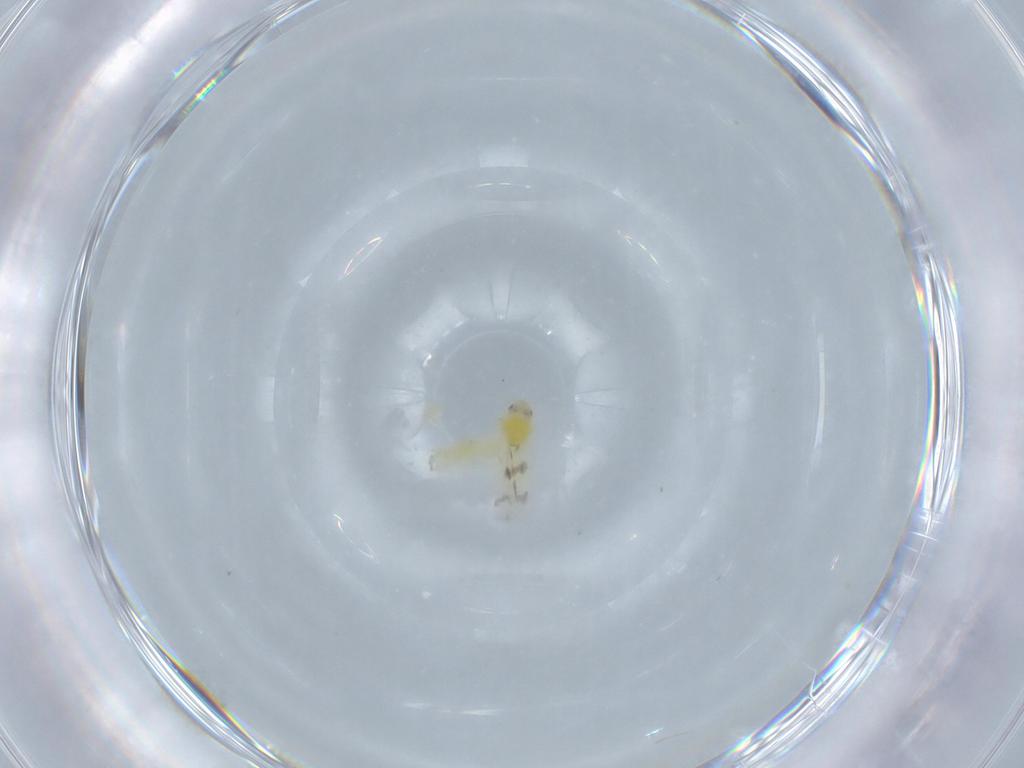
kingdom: Animalia
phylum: Arthropoda
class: Insecta
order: Hemiptera
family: Aleyrodidae
